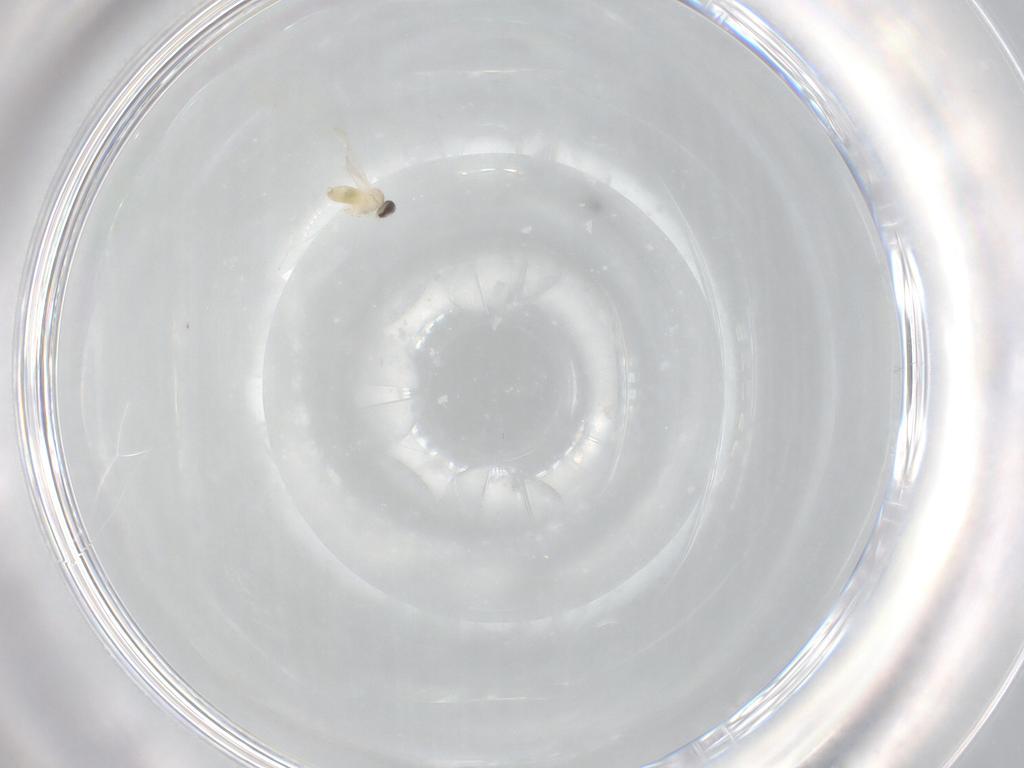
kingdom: Animalia
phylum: Arthropoda
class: Insecta
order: Diptera
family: Cecidomyiidae
